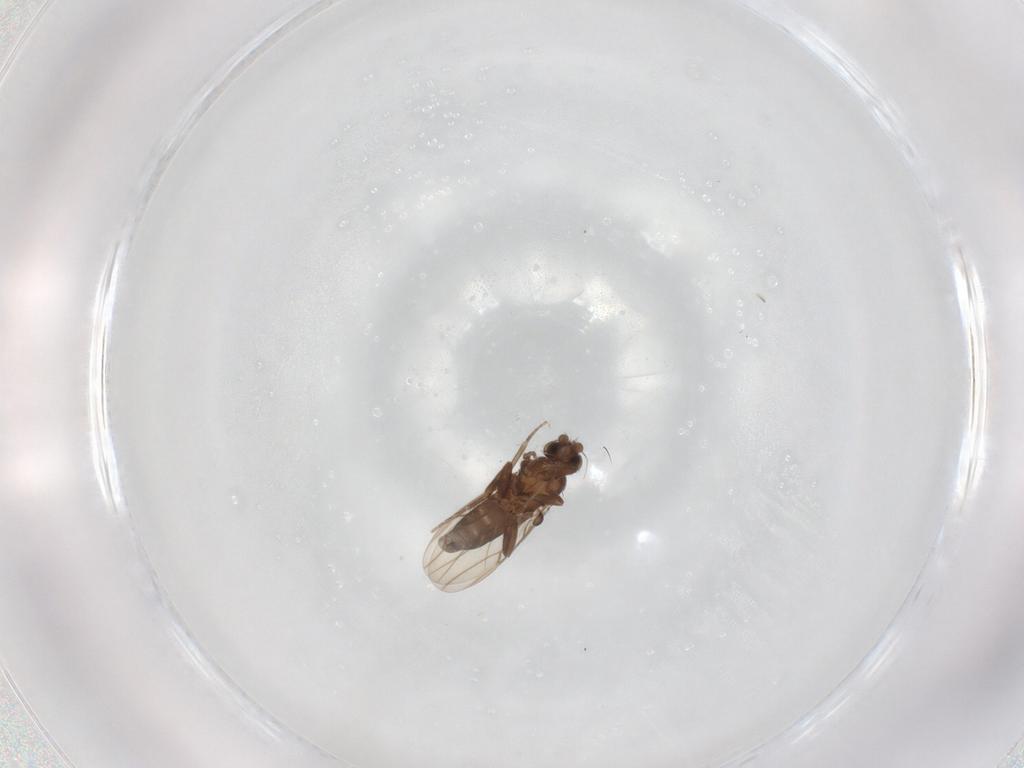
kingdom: Animalia
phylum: Arthropoda
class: Insecta
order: Diptera
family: Phoridae
